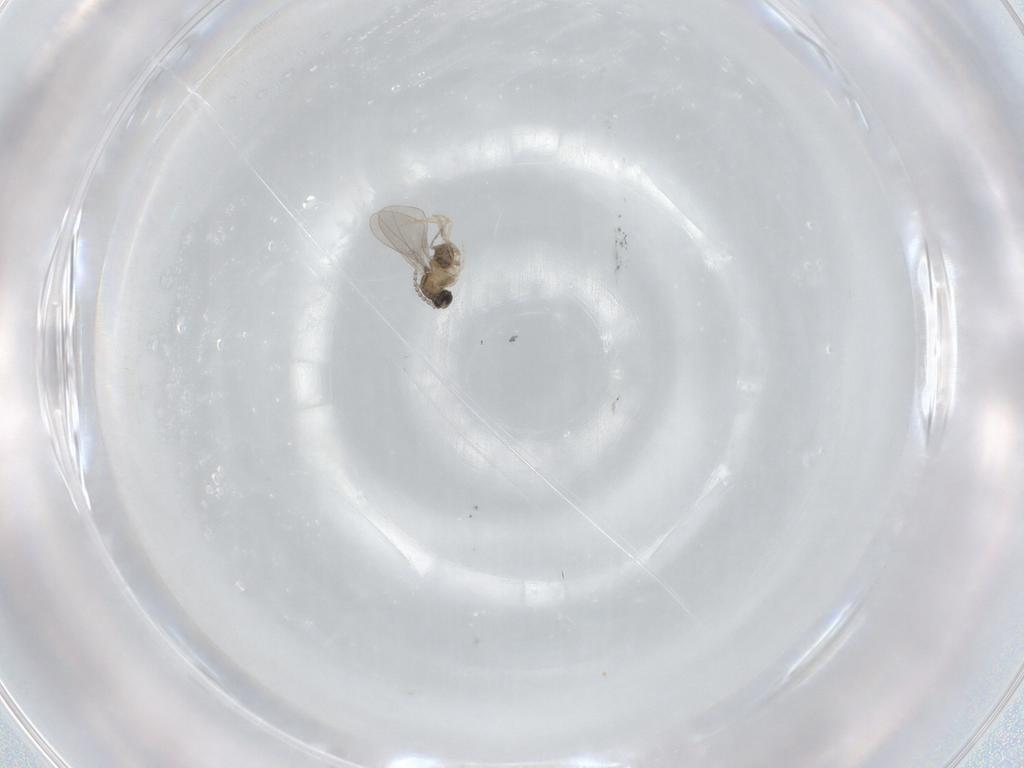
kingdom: Animalia
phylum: Arthropoda
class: Insecta
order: Diptera
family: Cecidomyiidae
